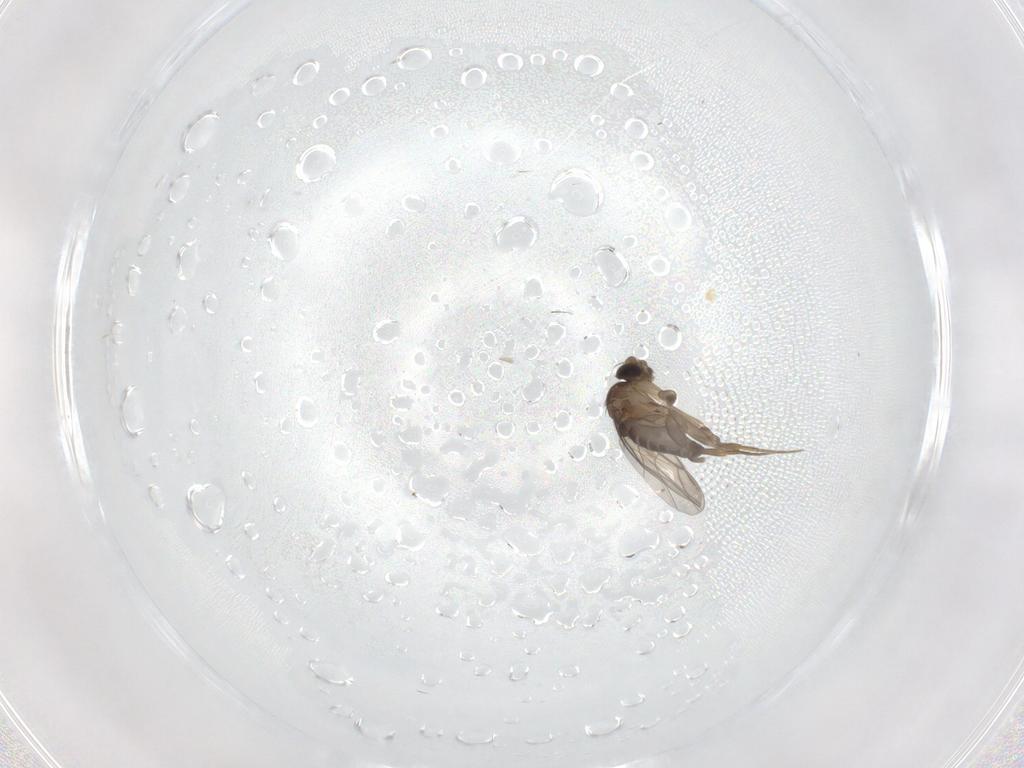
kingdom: Animalia
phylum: Arthropoda
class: Insecta
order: Diptera
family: Phoridae
